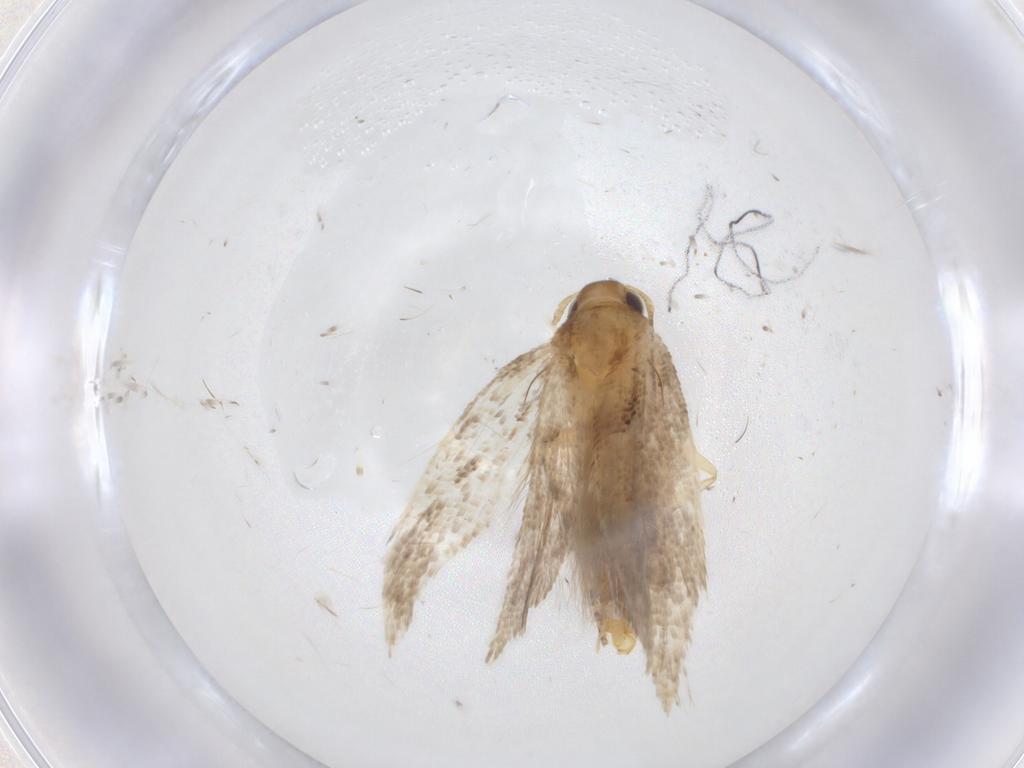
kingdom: Animalia
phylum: Arthropoda
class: Insecta
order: Lepidoptera
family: Gelechiidae
